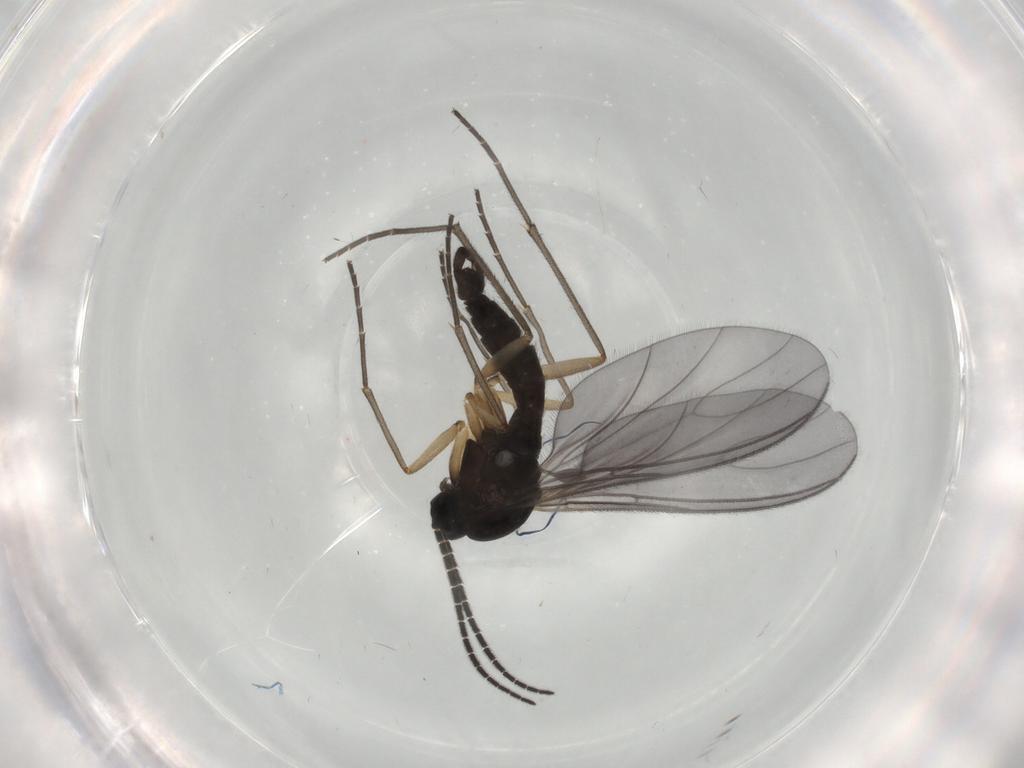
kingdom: Animalia
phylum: Arthropoda
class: Insecta
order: Diptera
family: Sciaridae
